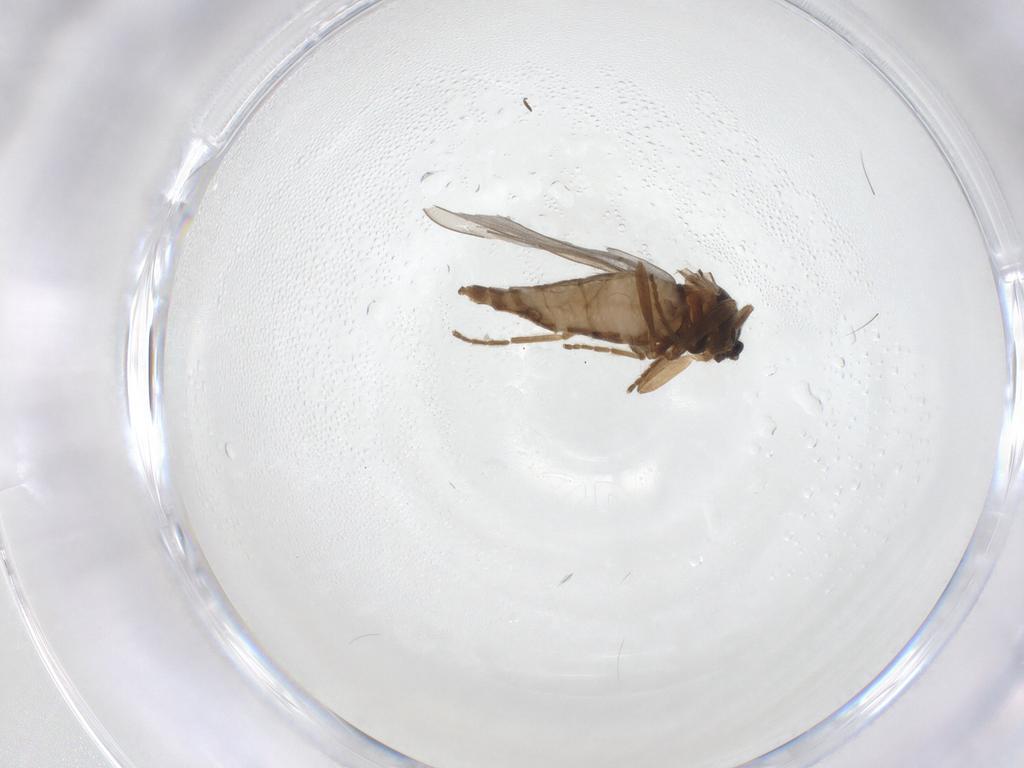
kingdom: Animalia
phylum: Arthropoda
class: Insecta
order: Diptera
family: Cecidomyiidae
